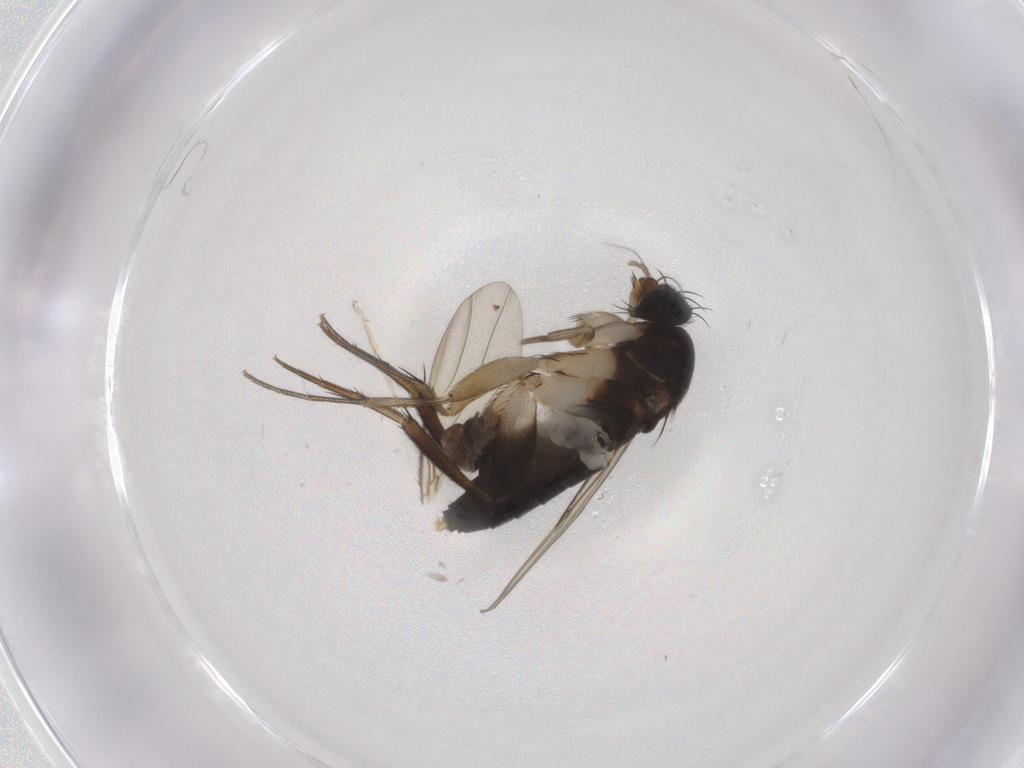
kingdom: Animalia
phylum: Arthropoda
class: Insecta
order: Diptera
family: Phoridae
